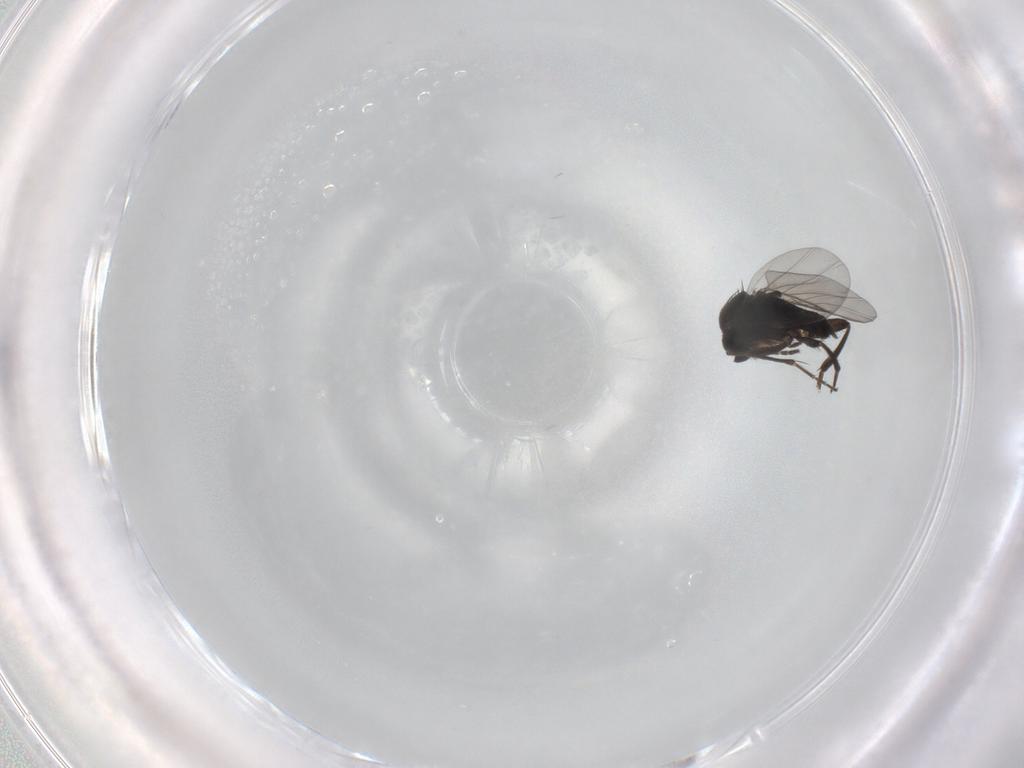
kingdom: Animalia
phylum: Arthropoda
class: Insecta
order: Diptera
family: Phoridae
